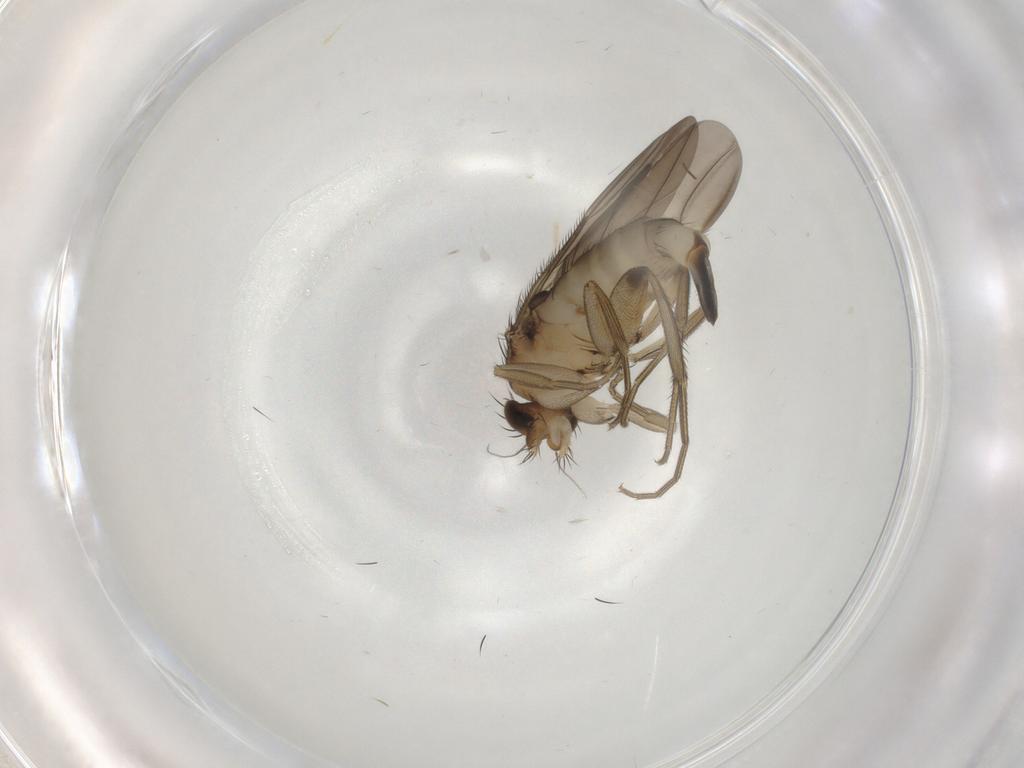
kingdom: Animalia
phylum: Arthropoda
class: Insecta
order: Diptera
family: Phoridae
